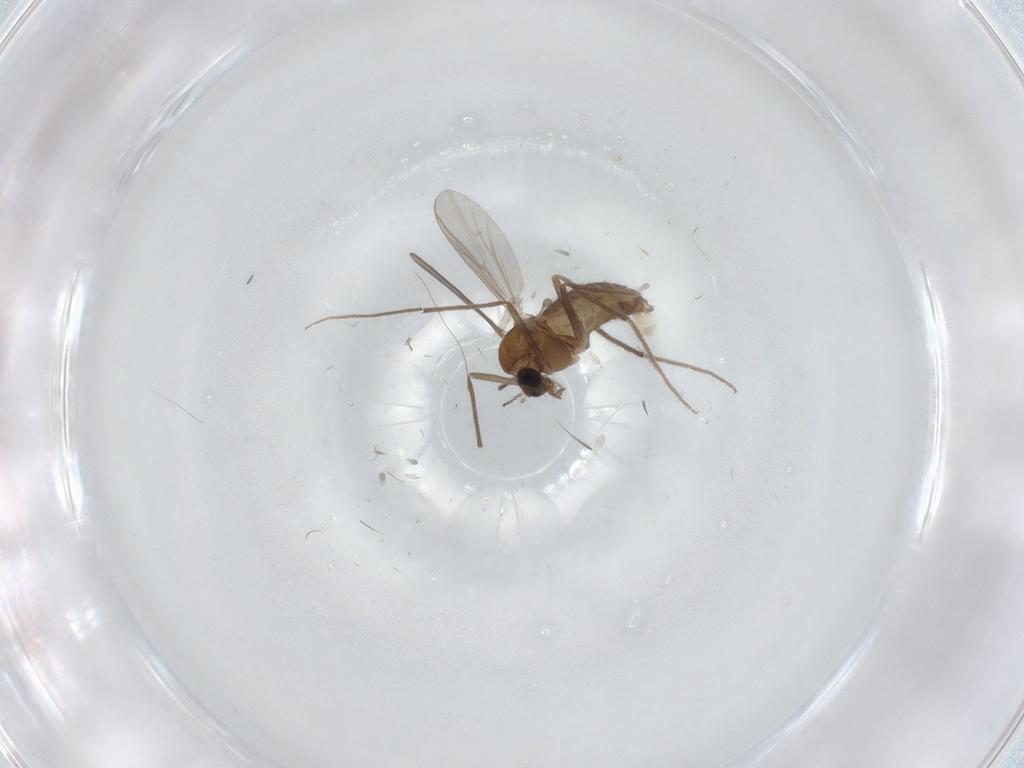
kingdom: Animalia
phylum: Arthropoda
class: Insecta
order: Diptera
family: Chironomidae
